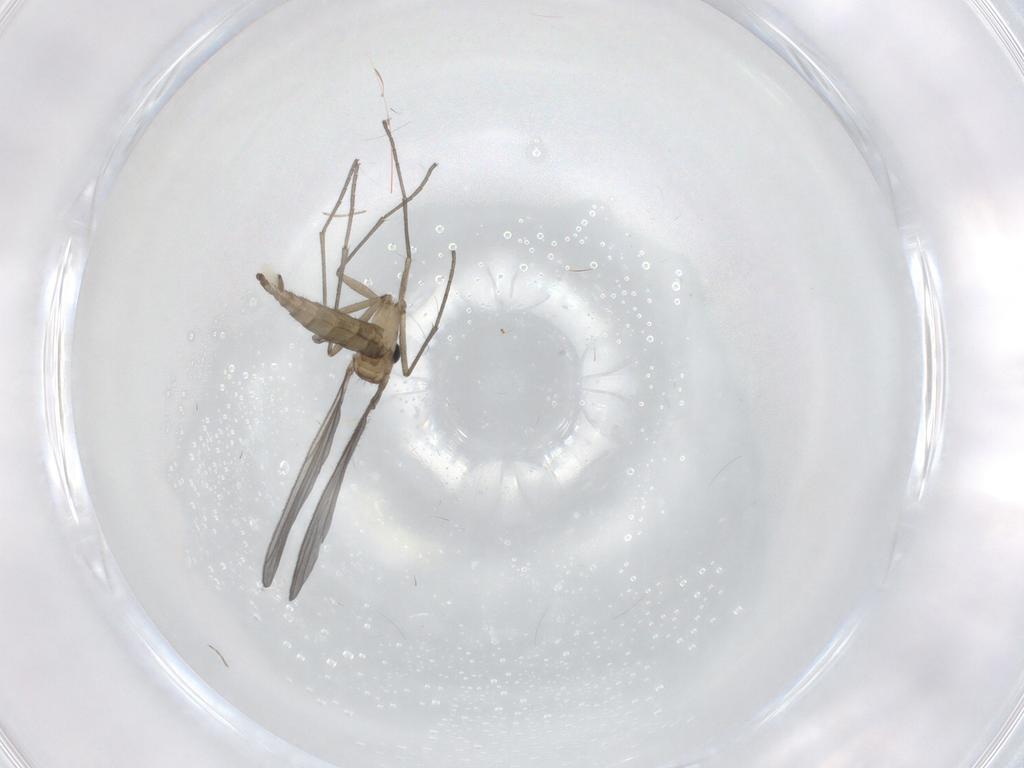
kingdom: Animalia
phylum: Arthropoda
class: Insecta
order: Diptera
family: Sciaridae
